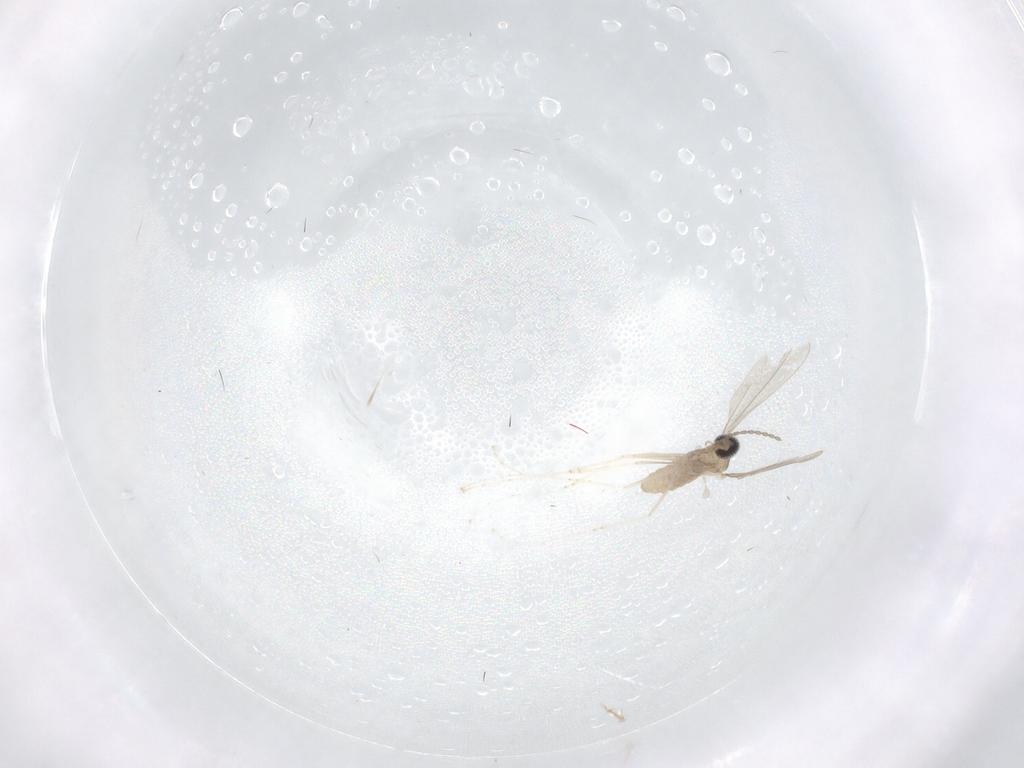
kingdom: Animalia
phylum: Arthropoda
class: Insecta
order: Diptera
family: Cecidomyiidae
